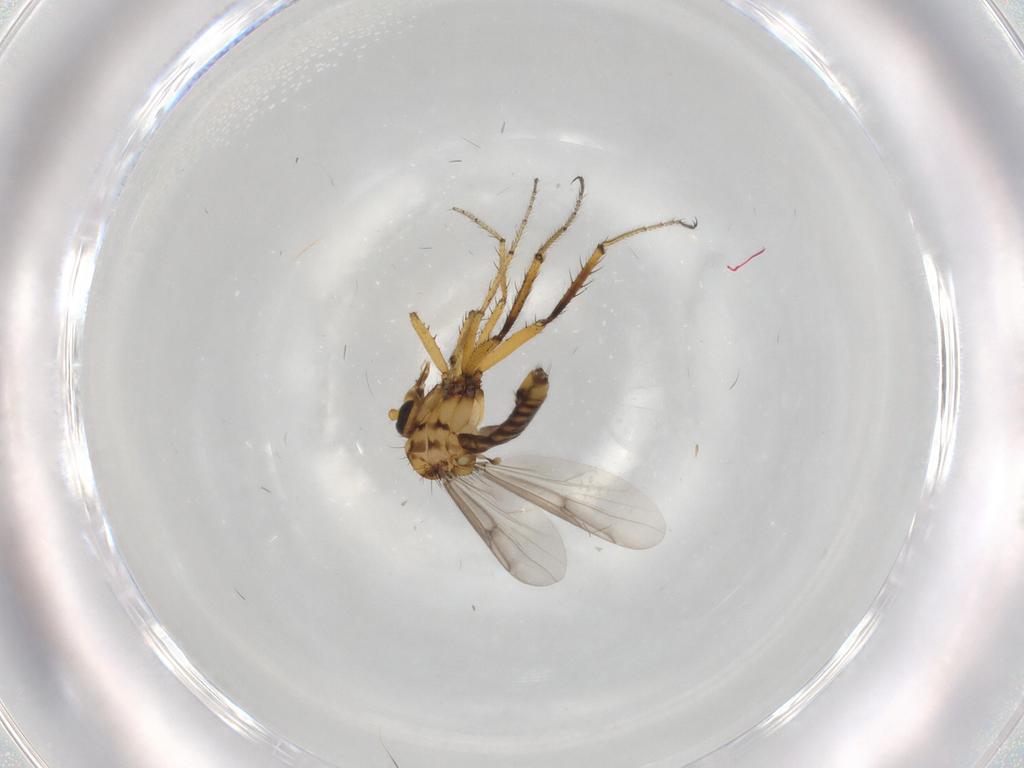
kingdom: Animalia
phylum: Arthropoda
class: Insecta
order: Diptera
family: Ceratopogonidae
